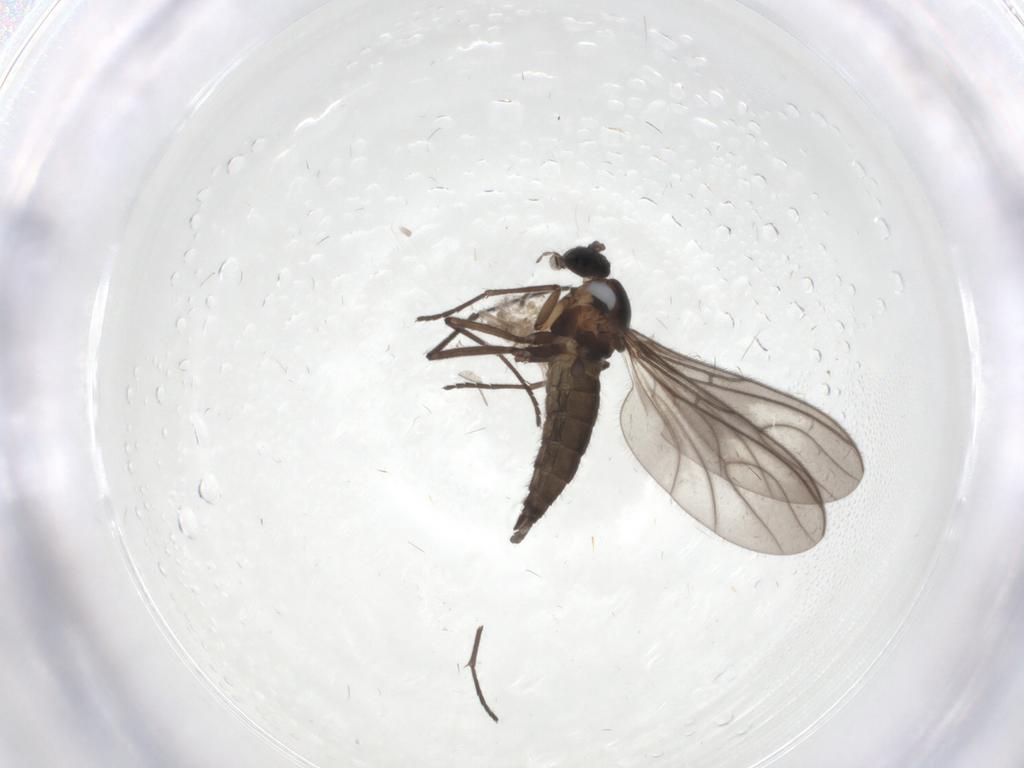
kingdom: Animalia
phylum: Arthropoda
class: Insecta
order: Diptera
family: Sciaridae
